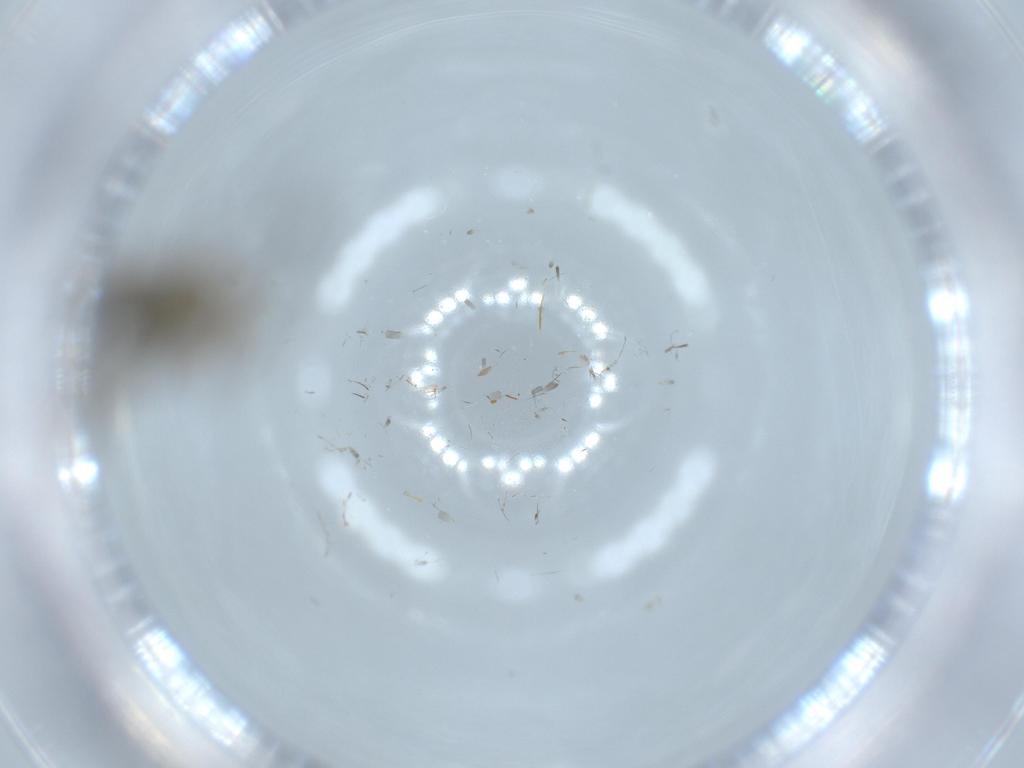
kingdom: Animalia
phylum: Arthropoda
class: Insecta
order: Diptera
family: Cecidomyiidae
